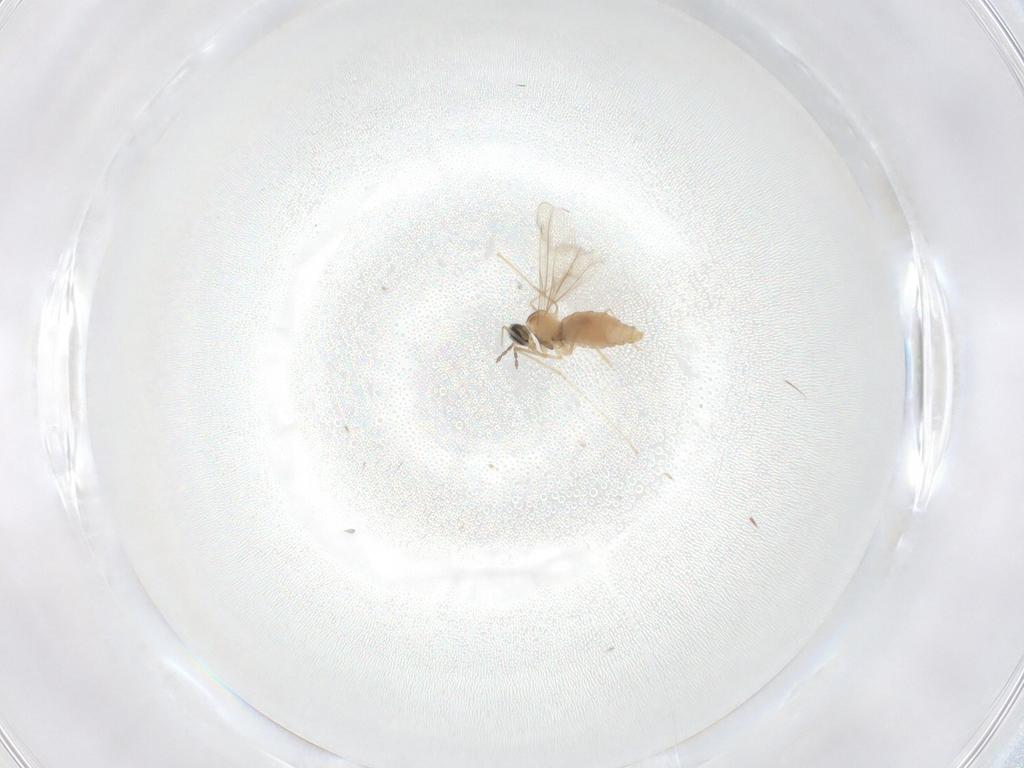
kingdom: Animalia
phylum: Arthropoda
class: Insecta
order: Diptera
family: Cecidomyiidae
